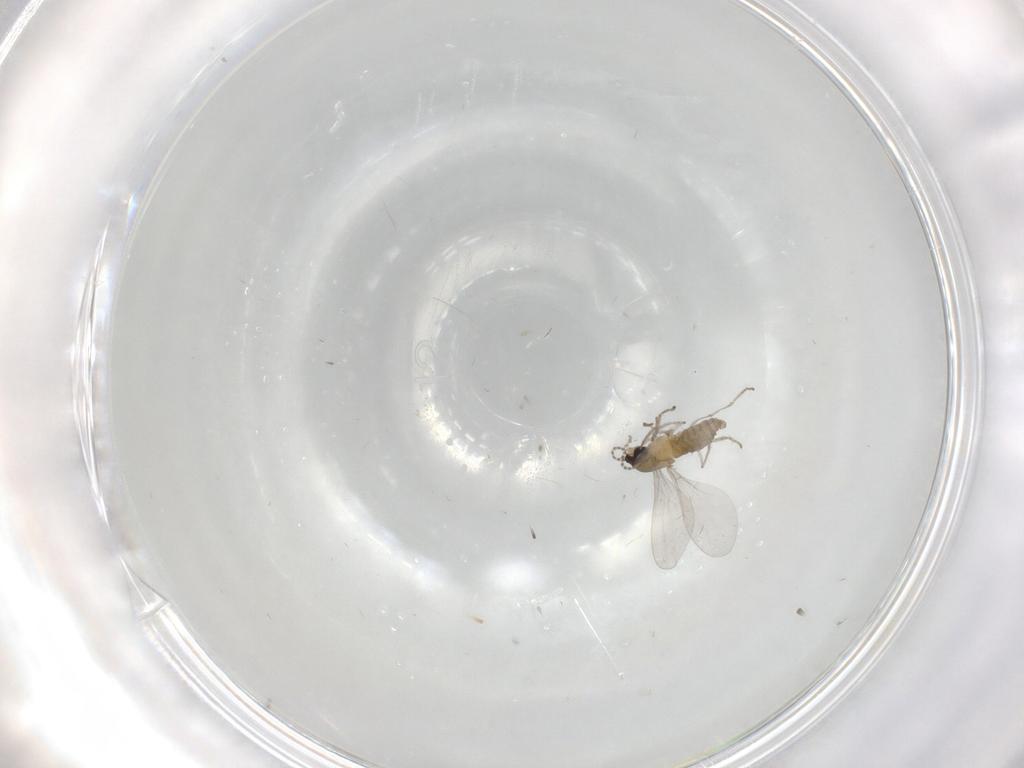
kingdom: Animalia
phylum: Arthropoda
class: Insecta
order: Diptera
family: Cecidomyiidae
